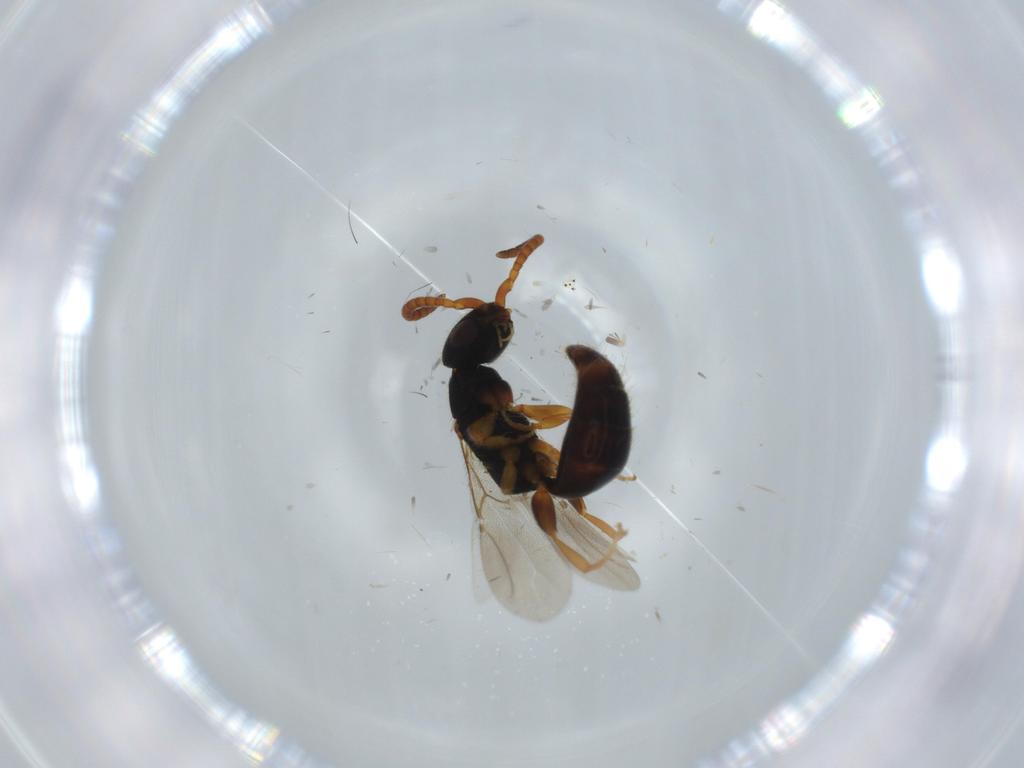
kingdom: Animalia
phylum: Arthropoda
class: Insecta
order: Hymenoptera
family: Bethylidae
